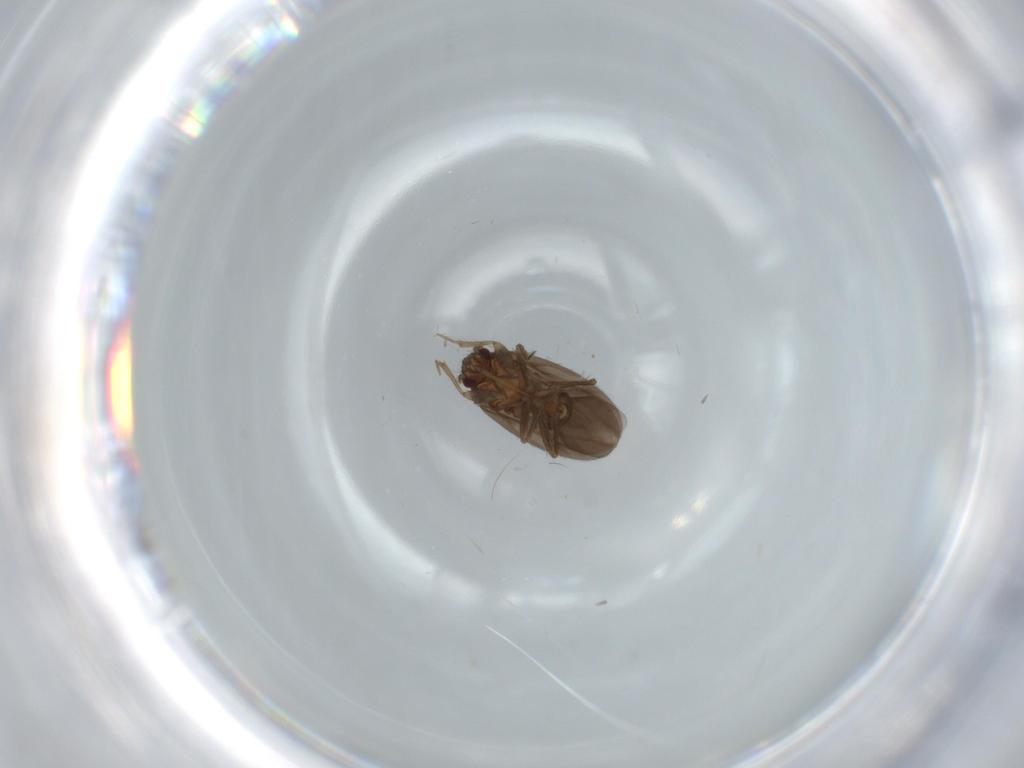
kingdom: Animalia
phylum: Arthropoda
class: Insecta
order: Hemiptera
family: Ceratocombidae
